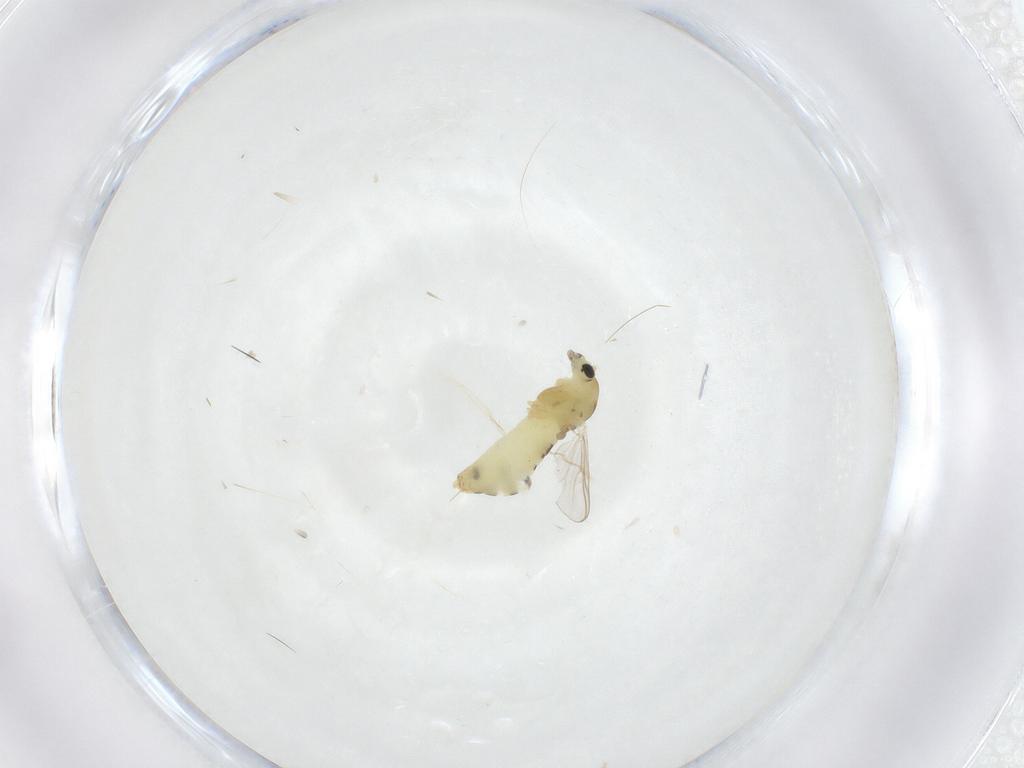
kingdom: Animalia
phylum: Arthropoda
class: Insecta
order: Diptera
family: Chironomidae
